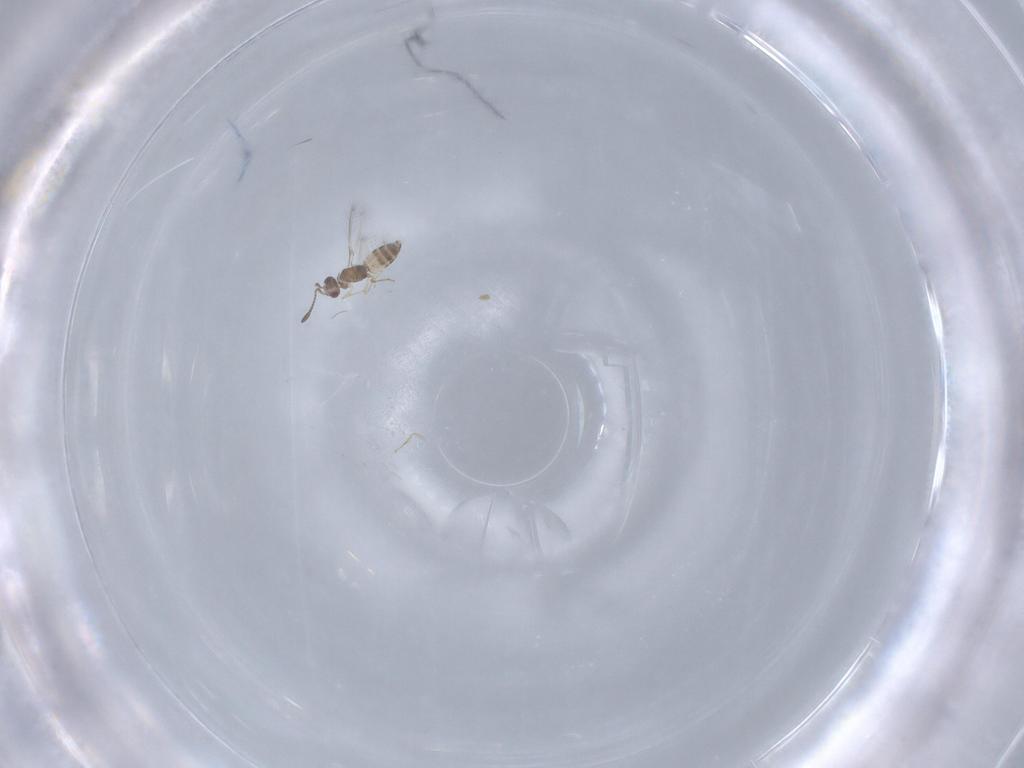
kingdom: Animalia
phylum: Arthropoda
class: Insecta
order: Diptera
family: Cecidomyiidae
